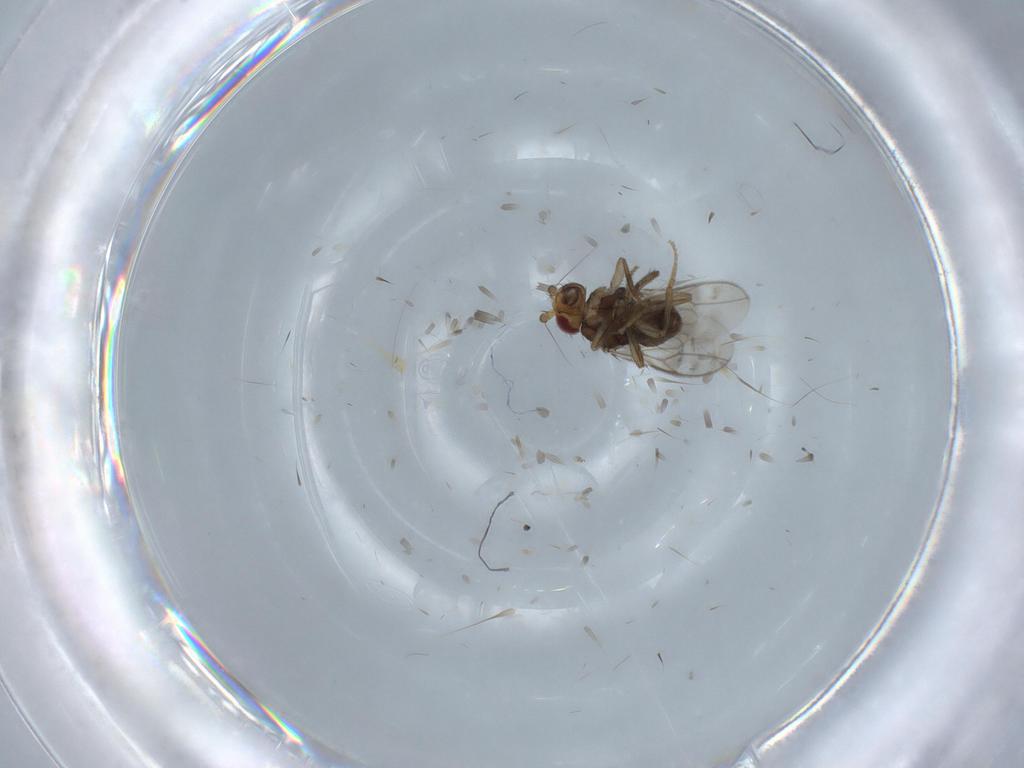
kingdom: Animalia
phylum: Arthropoda
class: Insecta
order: Diptera
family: Sphaeroceridae
